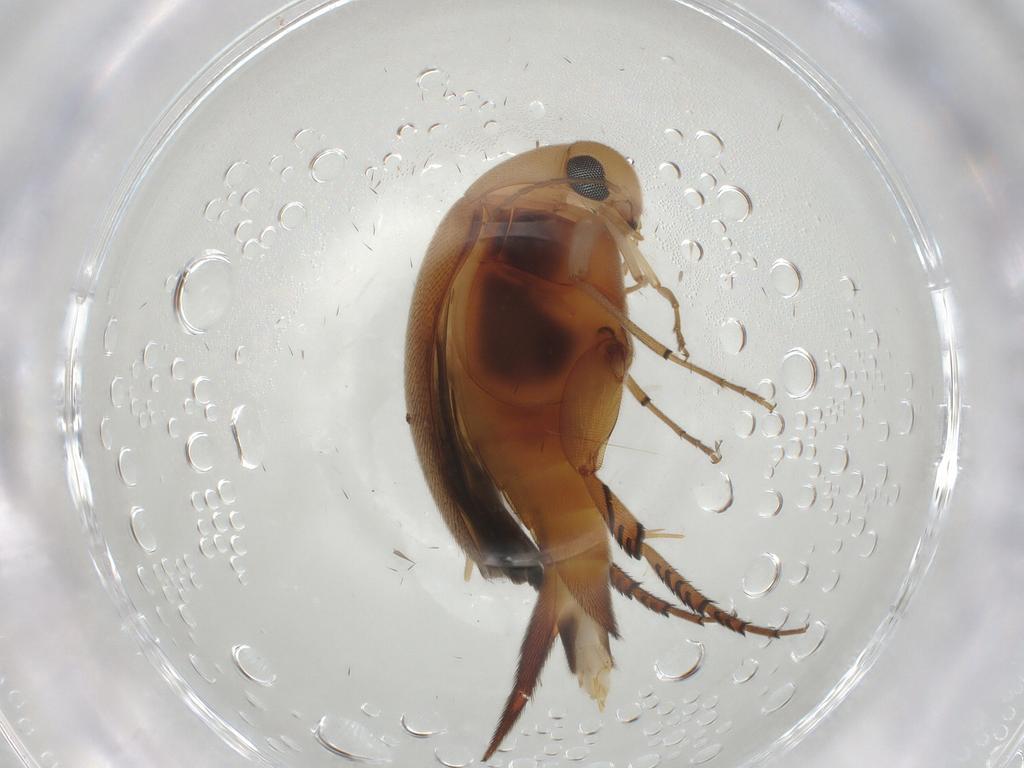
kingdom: Animalia
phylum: Arthropoda
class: Insecta
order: Coleoptera
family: Mordellidae
